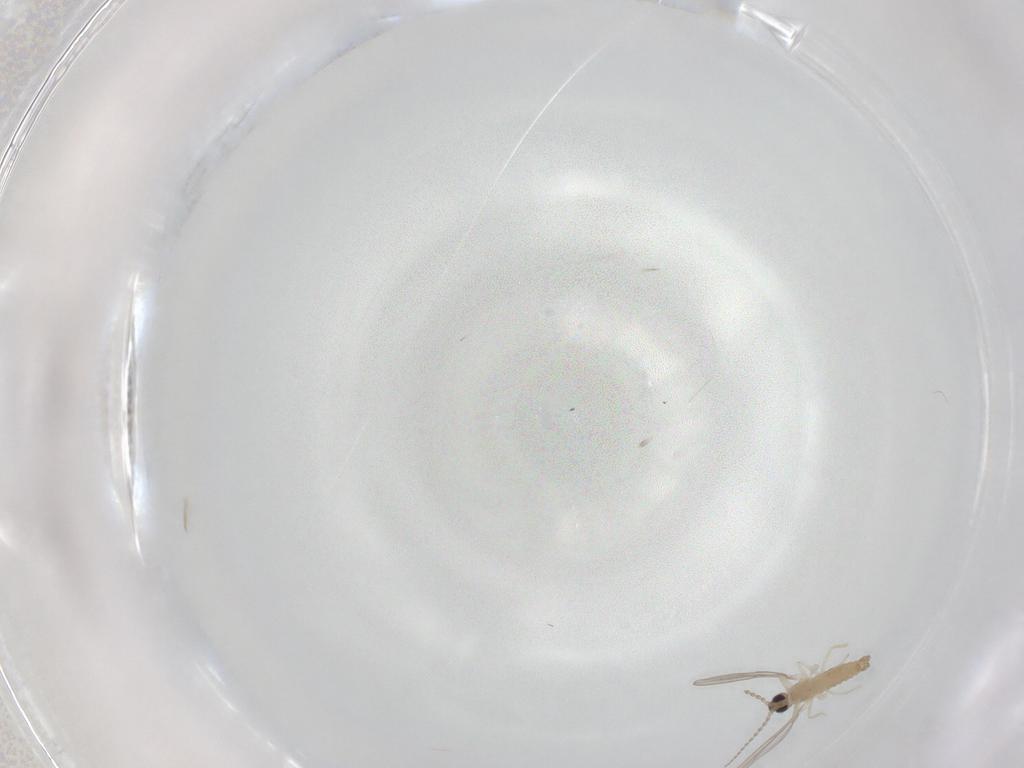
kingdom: Animalia
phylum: Arthropoda
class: Insecta
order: Diptera
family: Cecidomyiidae
